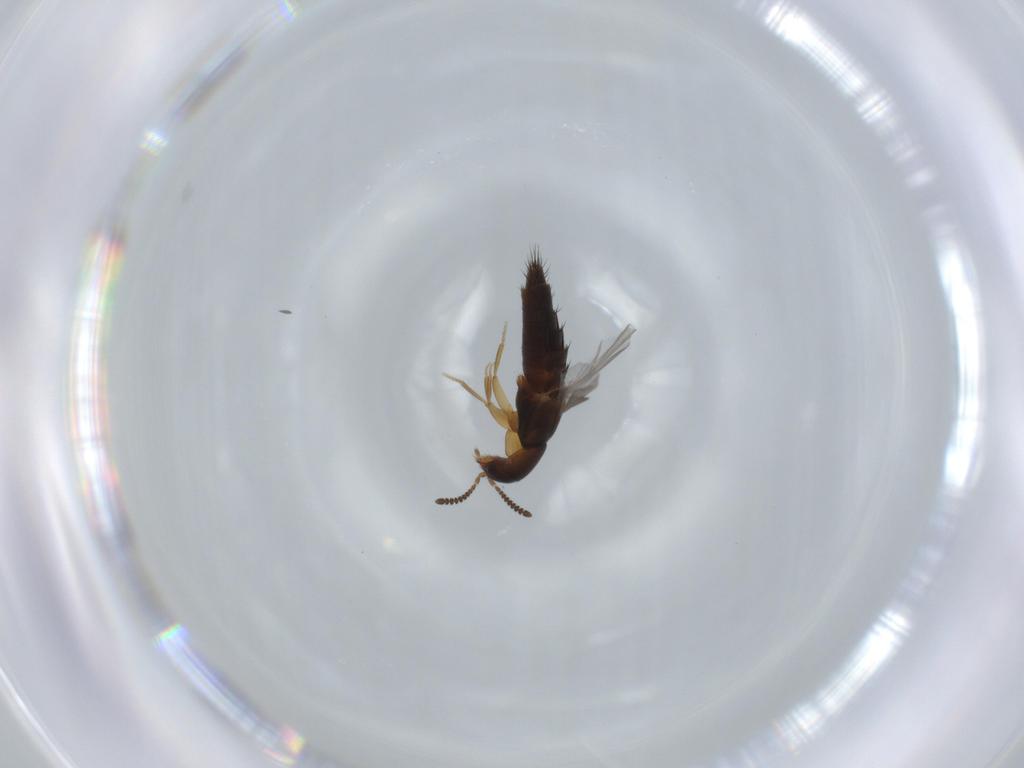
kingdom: Animalia
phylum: Arthropoda
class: Insecta
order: Coleoptera
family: Staphylinidae
